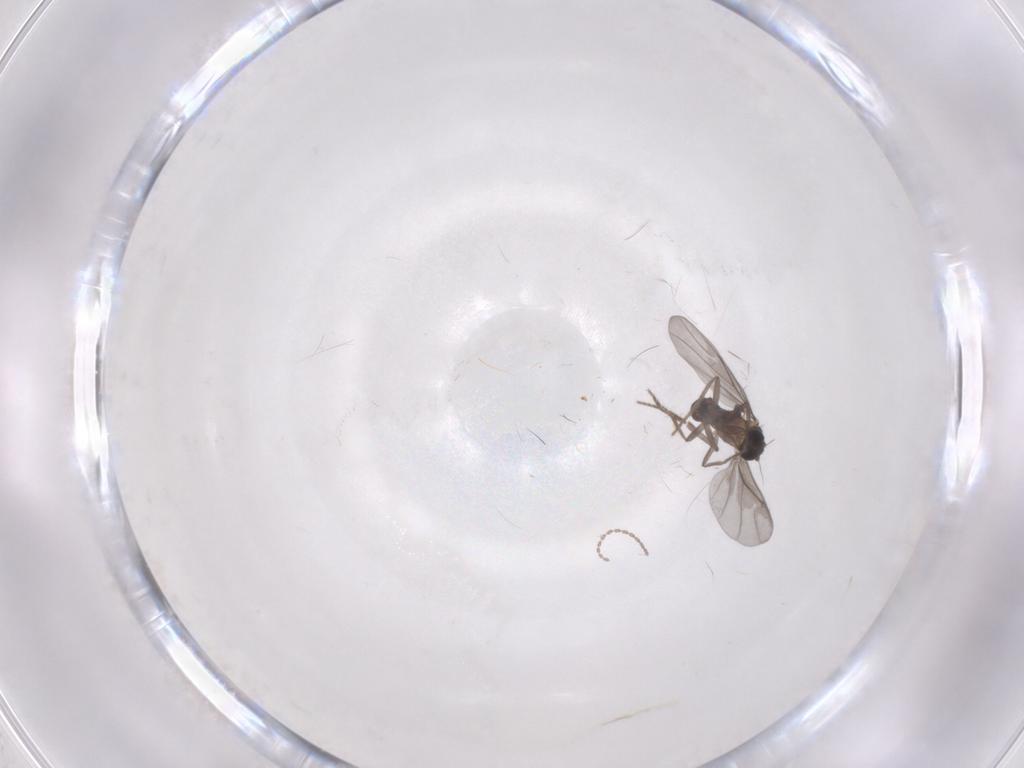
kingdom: Animalia
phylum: Arthropoda
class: Insecta
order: Diptera
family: Cecidomyiidae
